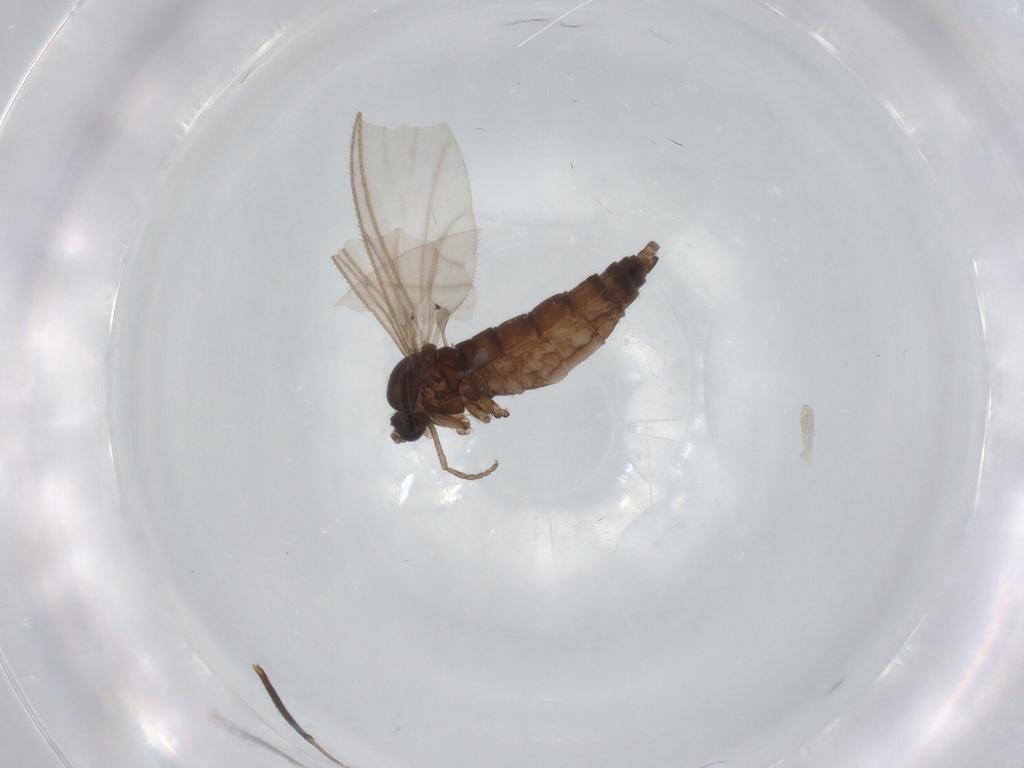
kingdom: Animalia
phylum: Arthropoda
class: Insecta
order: Diptera
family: Sciaridae
